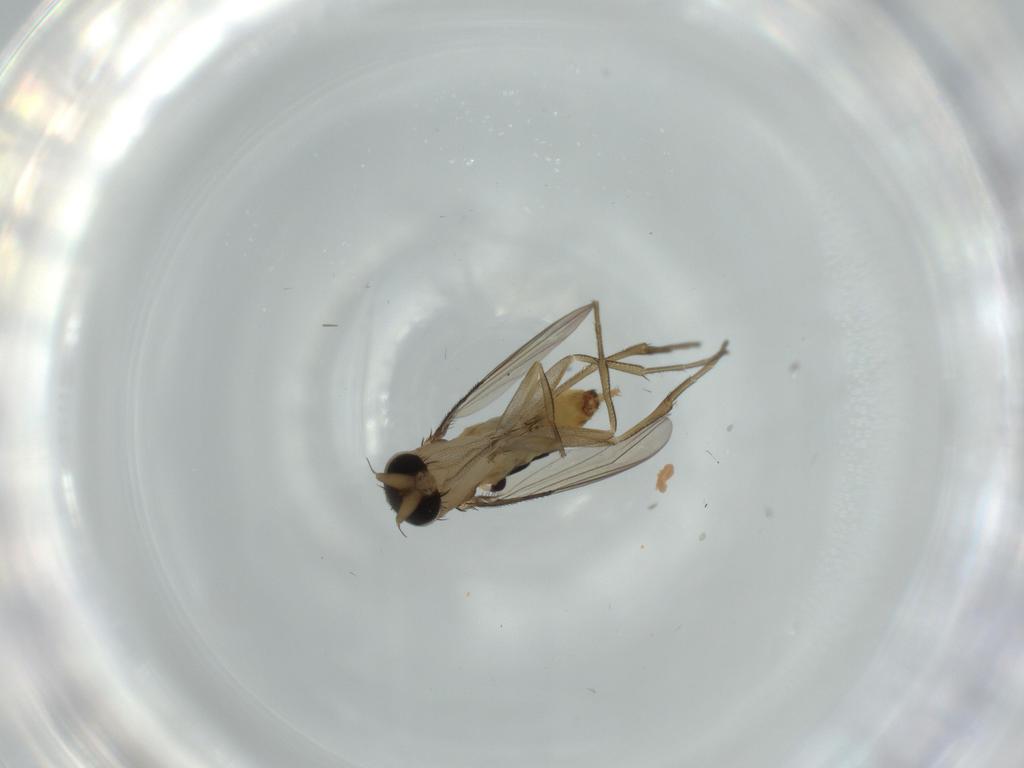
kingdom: Animalia
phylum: Arthropoda
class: Insecta
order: Diptera
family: Phoridae
